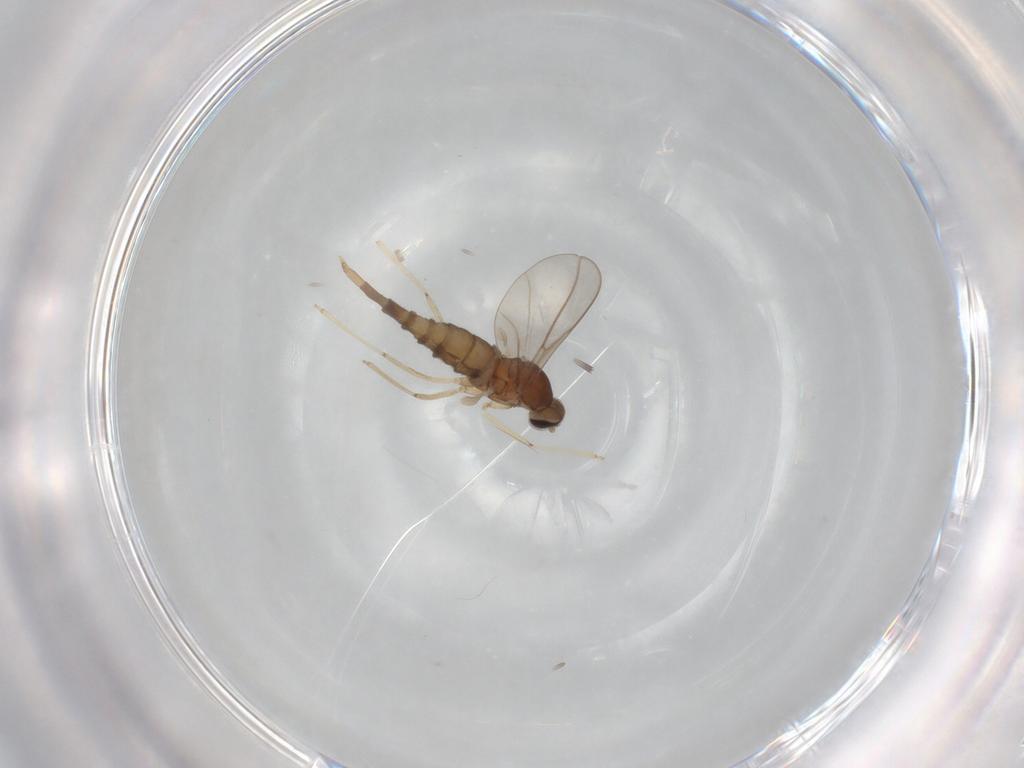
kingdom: Animalia
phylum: Arthropoda
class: Insecta
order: Diptera
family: Cecidomyiidae
